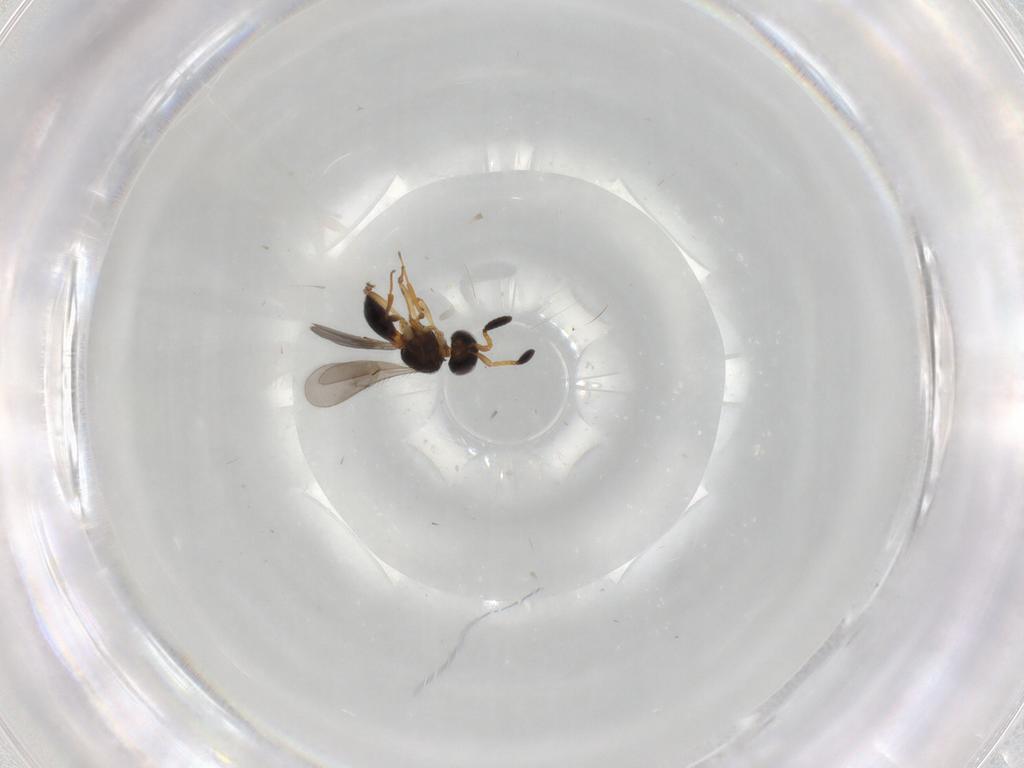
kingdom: Animalia
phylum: Arthropoda
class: Insecta
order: Hymenoptera
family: Scelionidae
